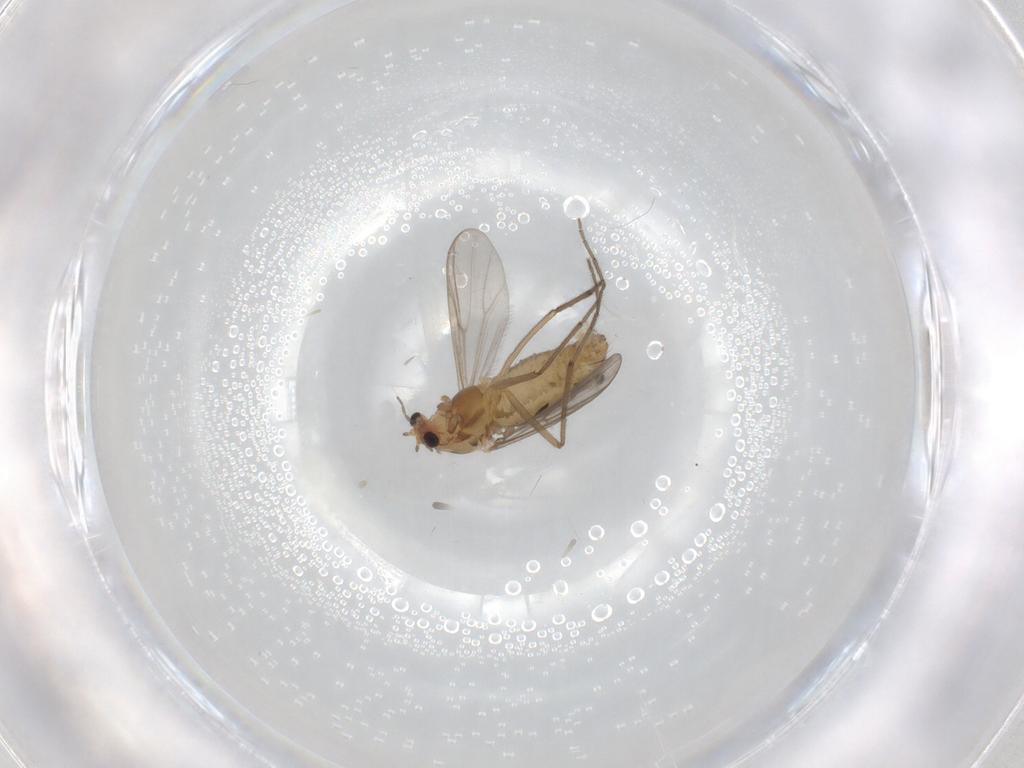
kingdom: Animalia
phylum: Arthropoda
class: Insecta
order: Diptera
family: Chironomidae
